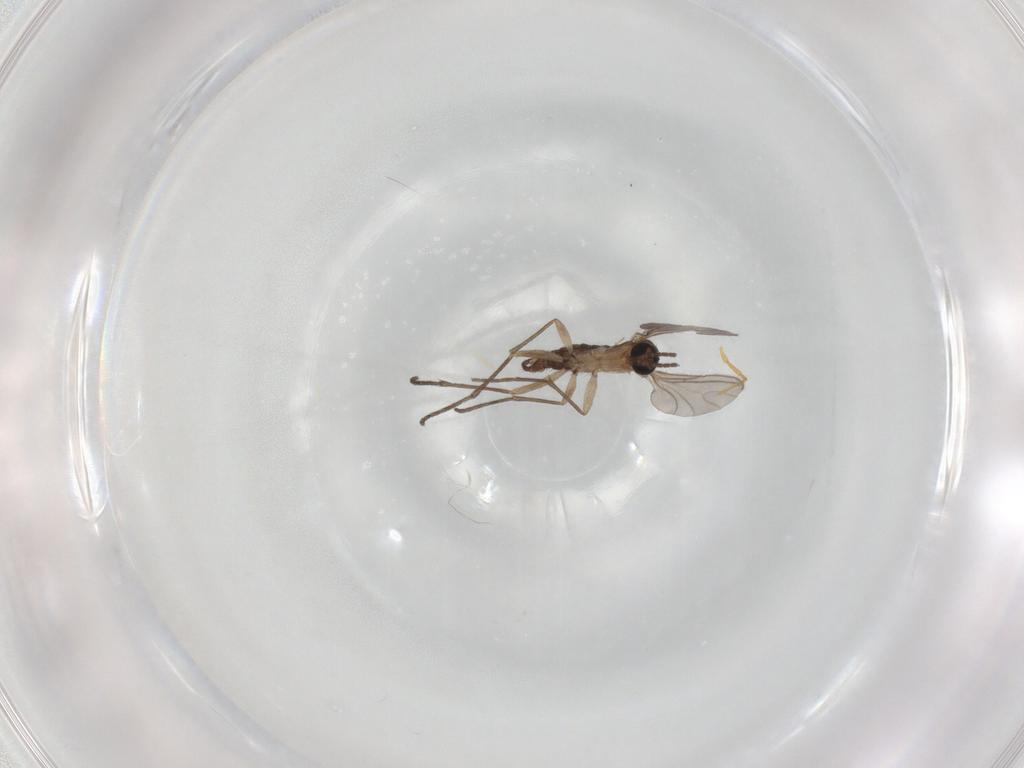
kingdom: Animalia
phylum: Arthropoda
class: Insecta
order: Diptera
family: Sciaridae
